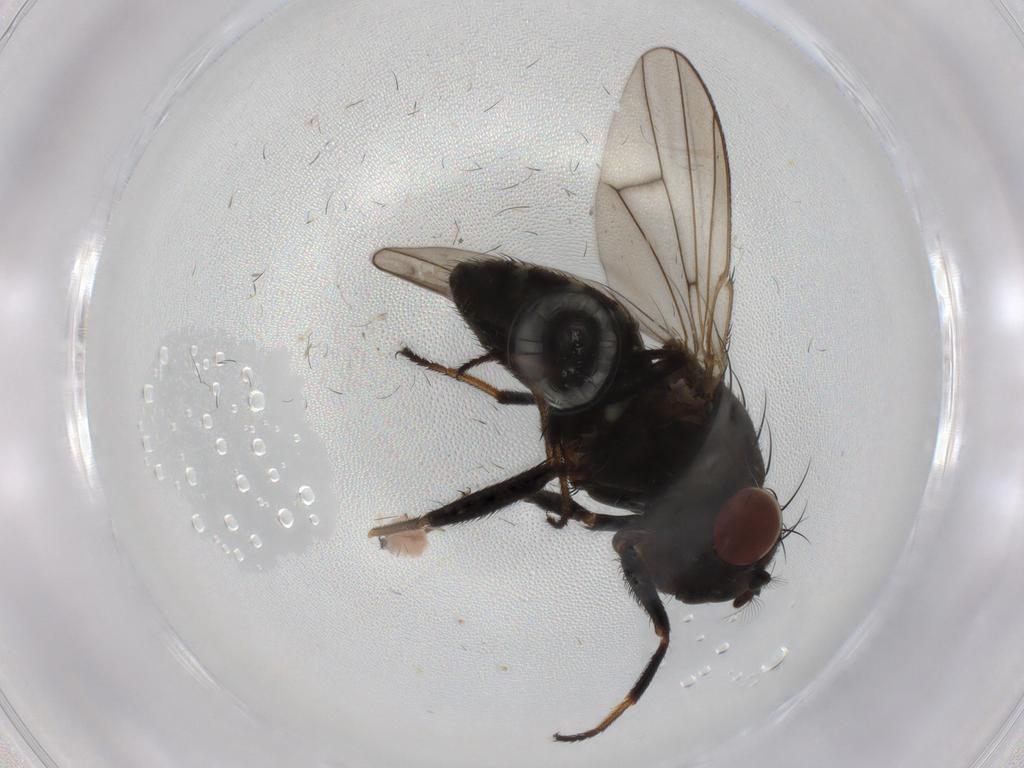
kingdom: Animalia
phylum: Arthropoda
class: Insecta
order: Diptera
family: Ephydridae
